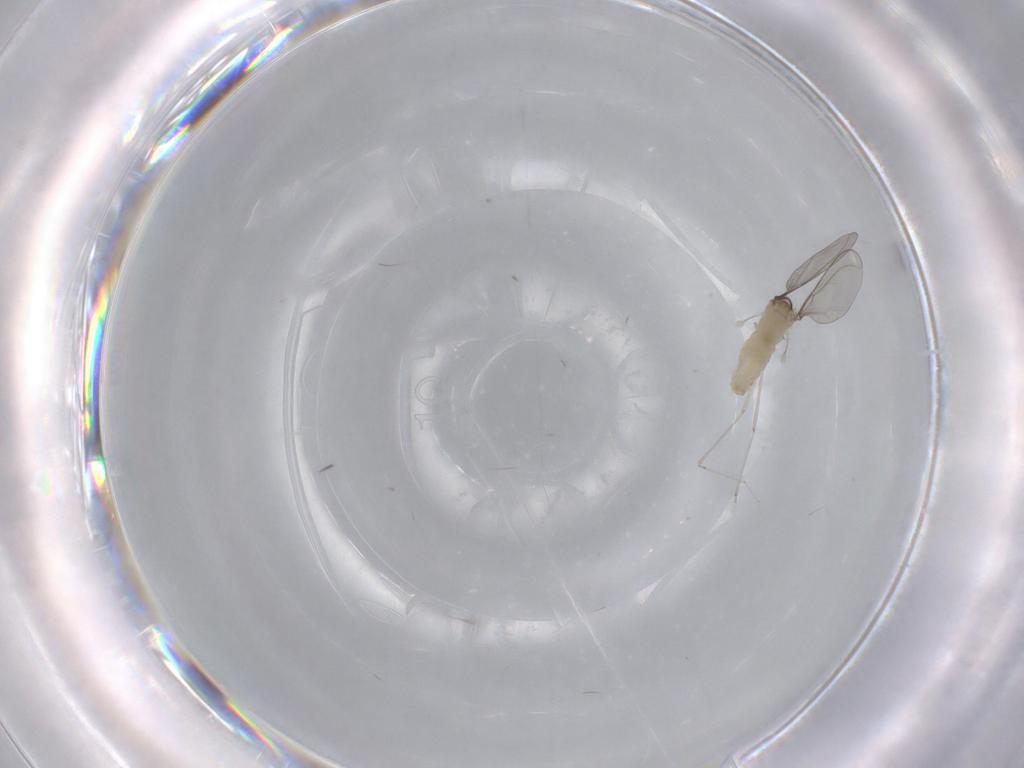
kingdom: Animalia
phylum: Arthropoda
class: Insecta
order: Diptera
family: Cecidomyiidae
